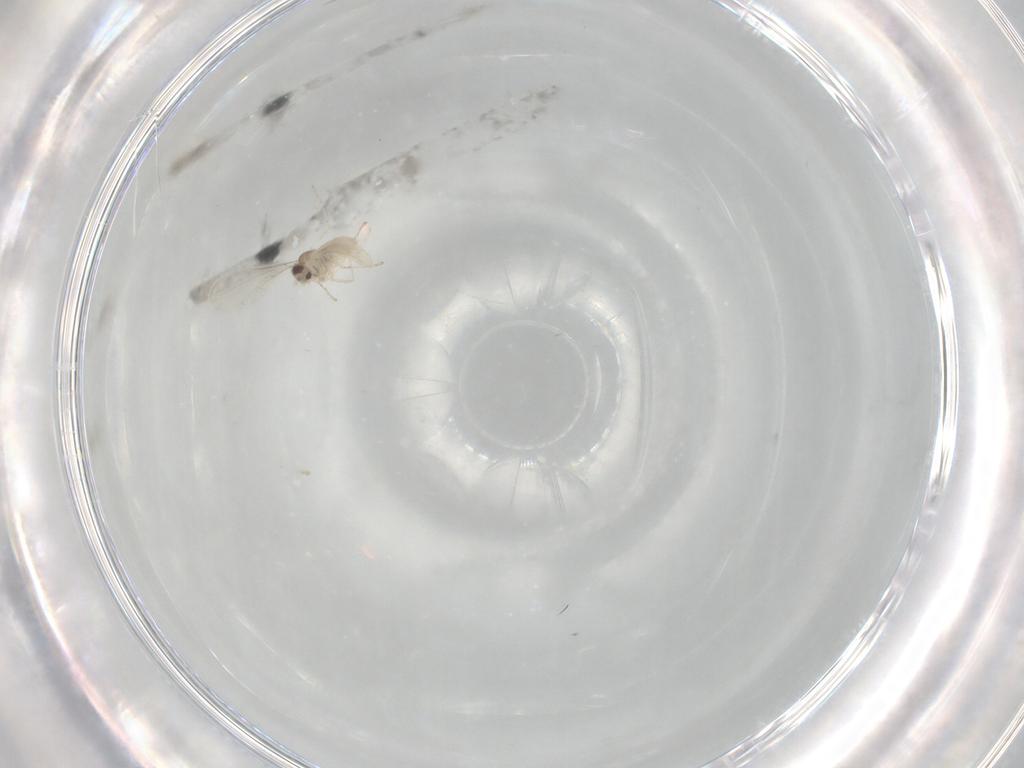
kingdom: Animalia
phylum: Arthropoda
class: Insecta
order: Diptera
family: Cecidomyiidae
